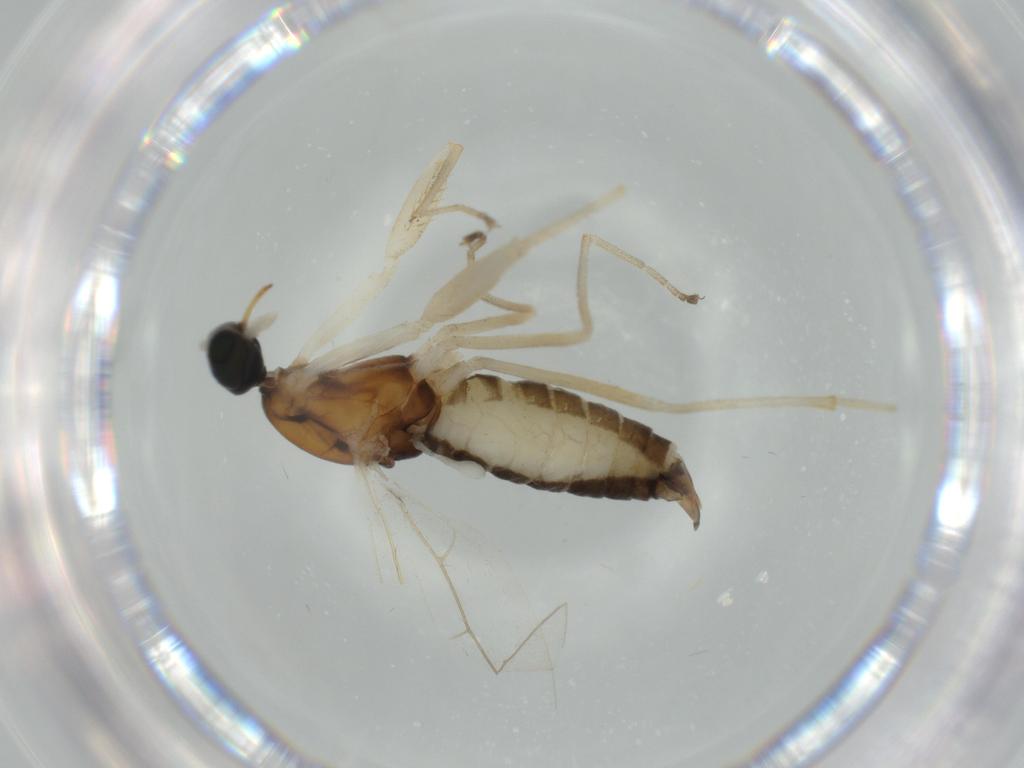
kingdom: Animalia
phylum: Arthropoda
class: Insecta
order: Diptera
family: Empididae
